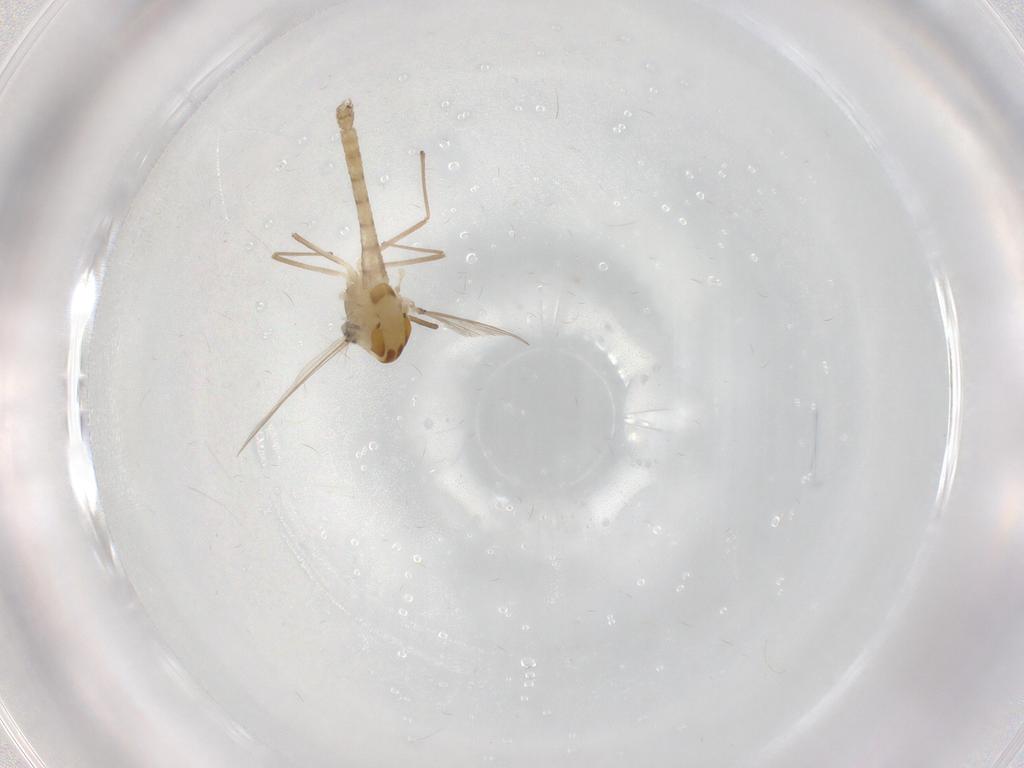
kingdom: Animalia
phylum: Arthropoda
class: Insecta
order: Diptera
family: Chironomidae
